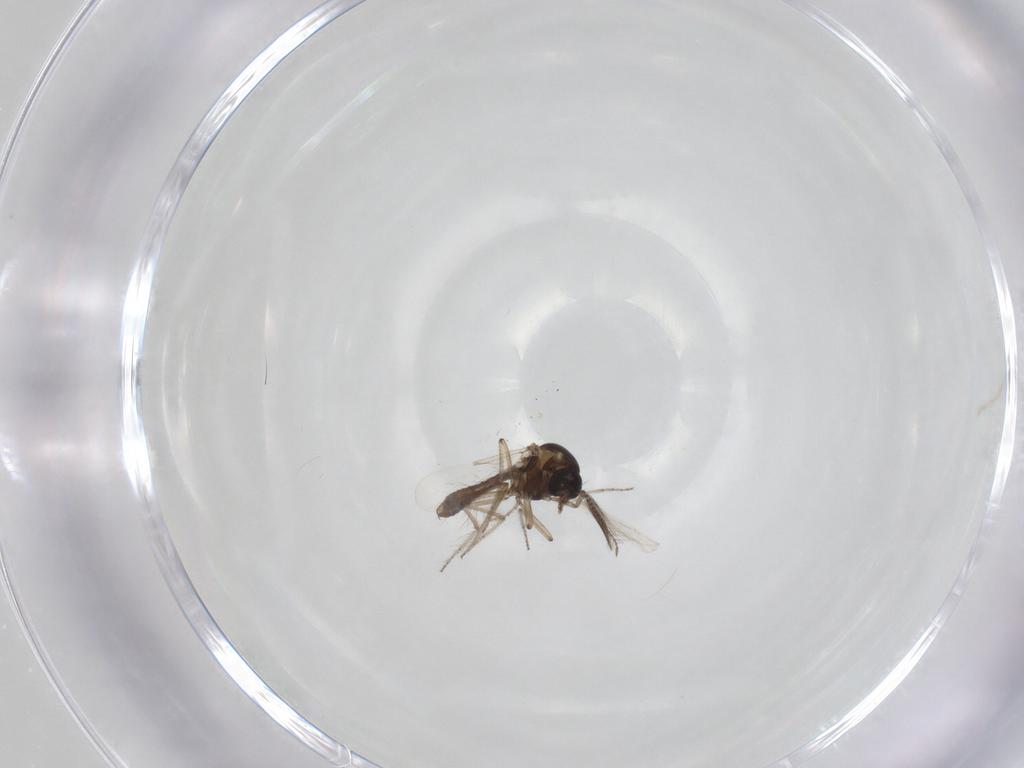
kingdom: Animalia
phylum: Arthropoda
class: Insecta
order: Diptera
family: Ceratopogonidae
